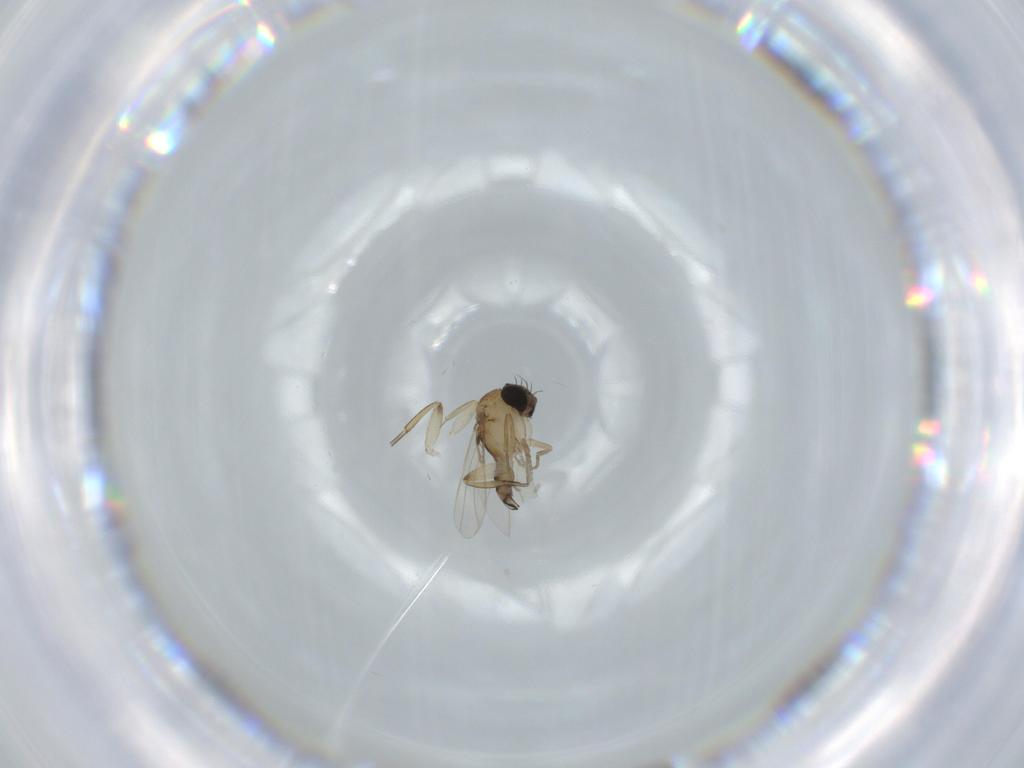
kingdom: Animalia
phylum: Arthropoda
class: Insecta
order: Diptera
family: Phoridae
